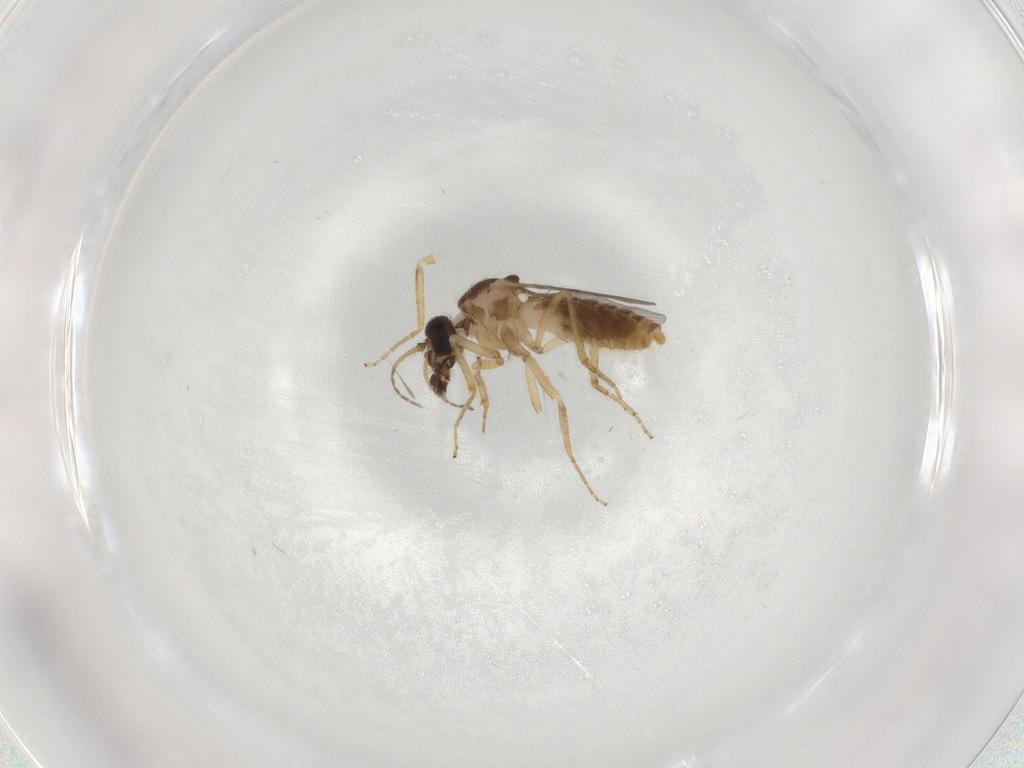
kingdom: Animalia
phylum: Arthropoda
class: Insecta
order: Diptera
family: Ceratopogonidae
